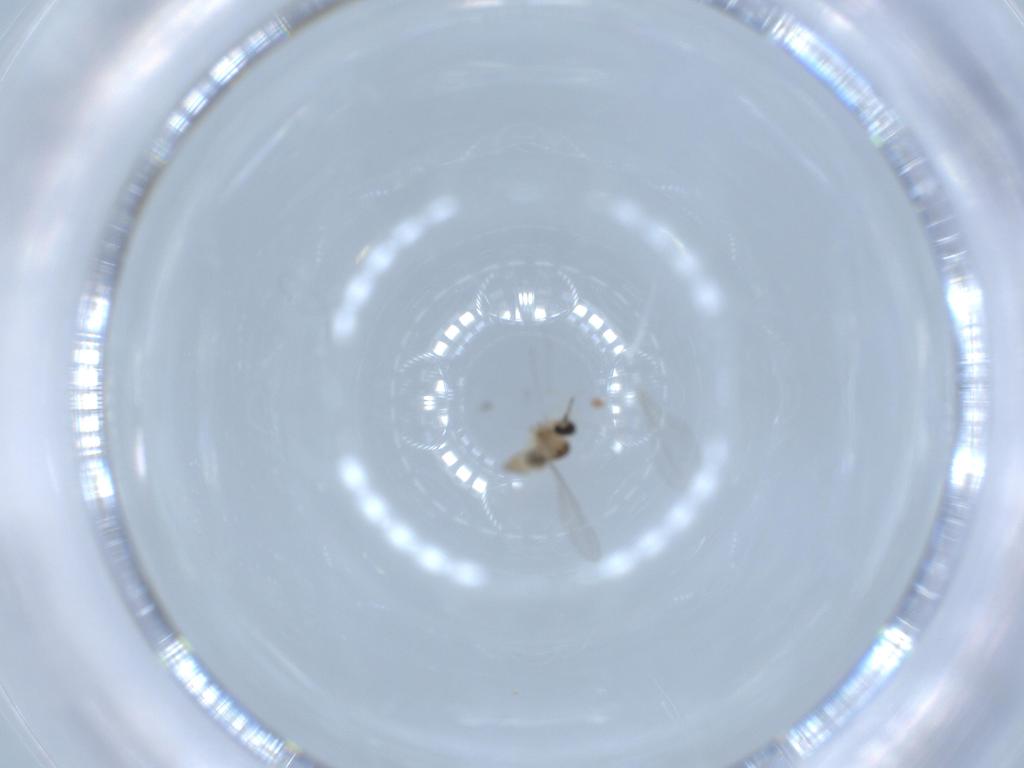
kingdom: Animalia
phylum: Arthropoda
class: Insecta
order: Diptera
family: Cecidomyiidae
